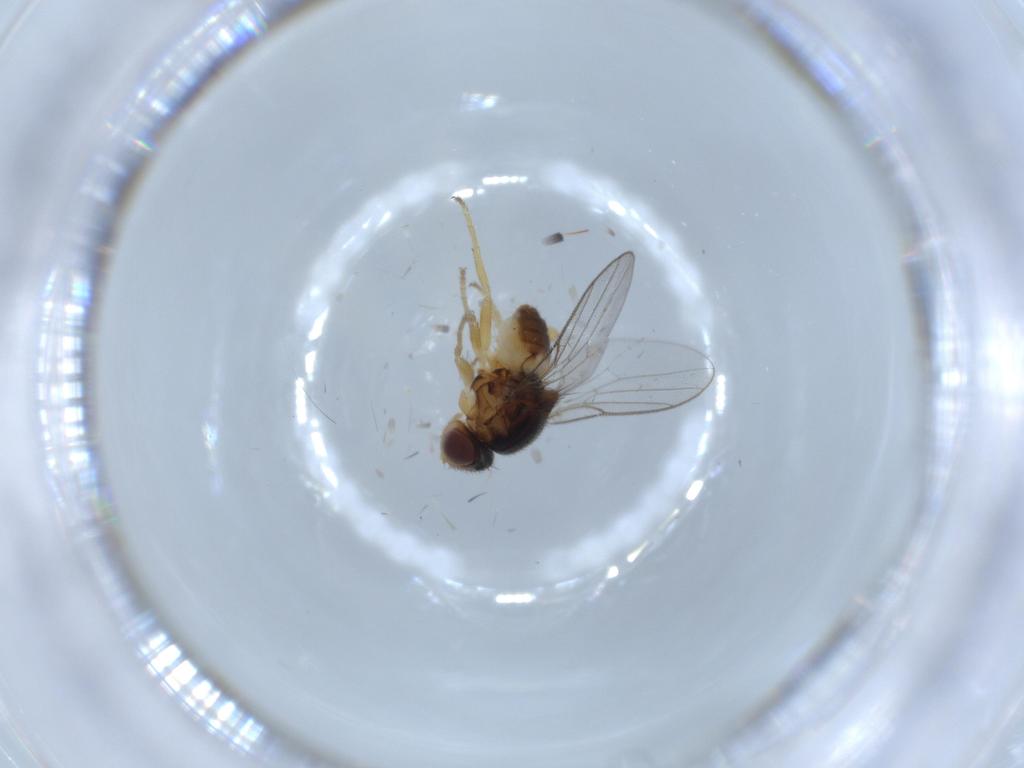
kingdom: Animalia
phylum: Arthropoda
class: Insecta
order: Diptera
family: Chloropidae
